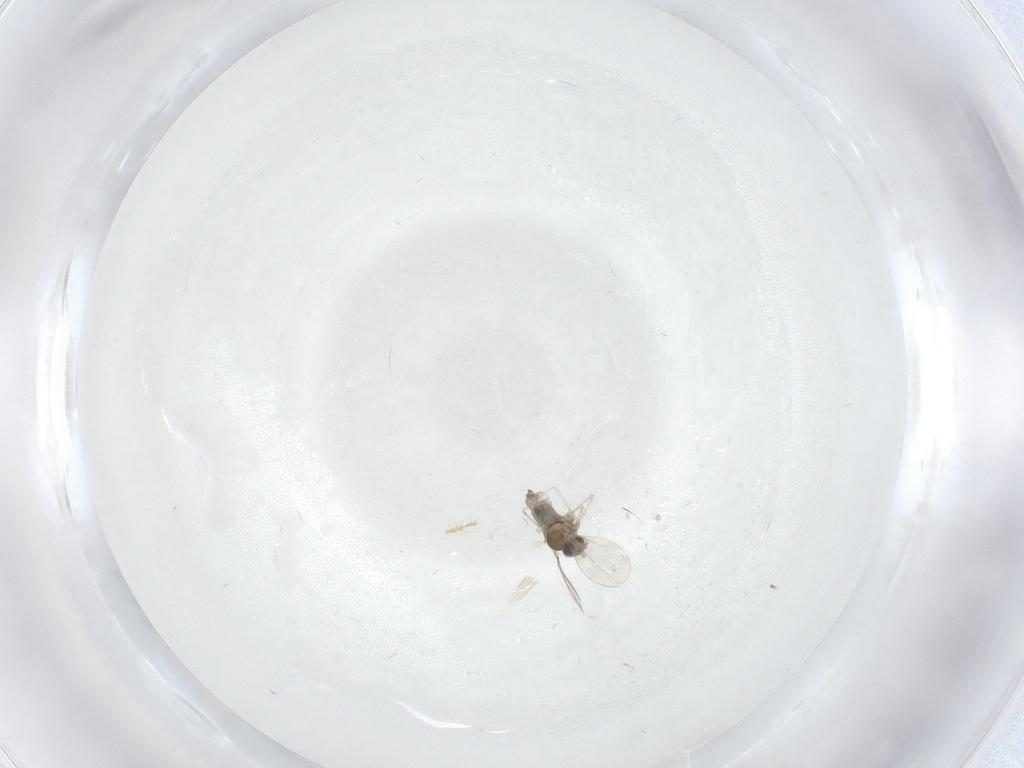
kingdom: Animalia
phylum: Arthropoda
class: Insecta
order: Diptera
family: Cecidomyiidae
